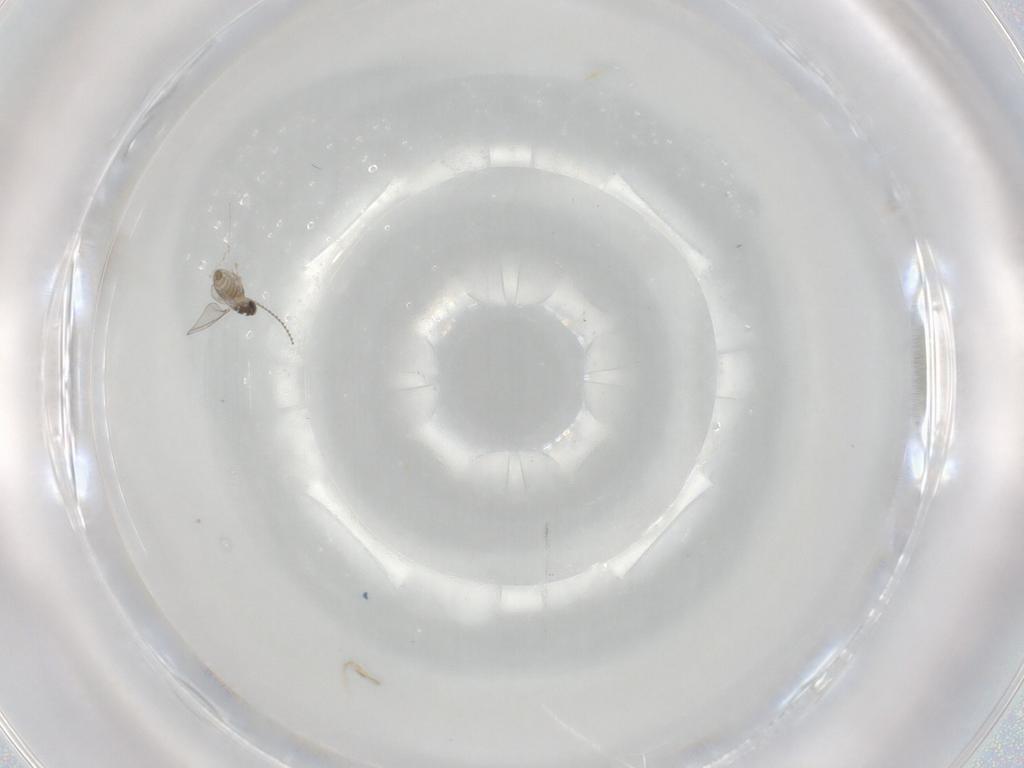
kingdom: Animalia
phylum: Arthropoda
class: Insecta
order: Diptera
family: Cecidomyiidae
